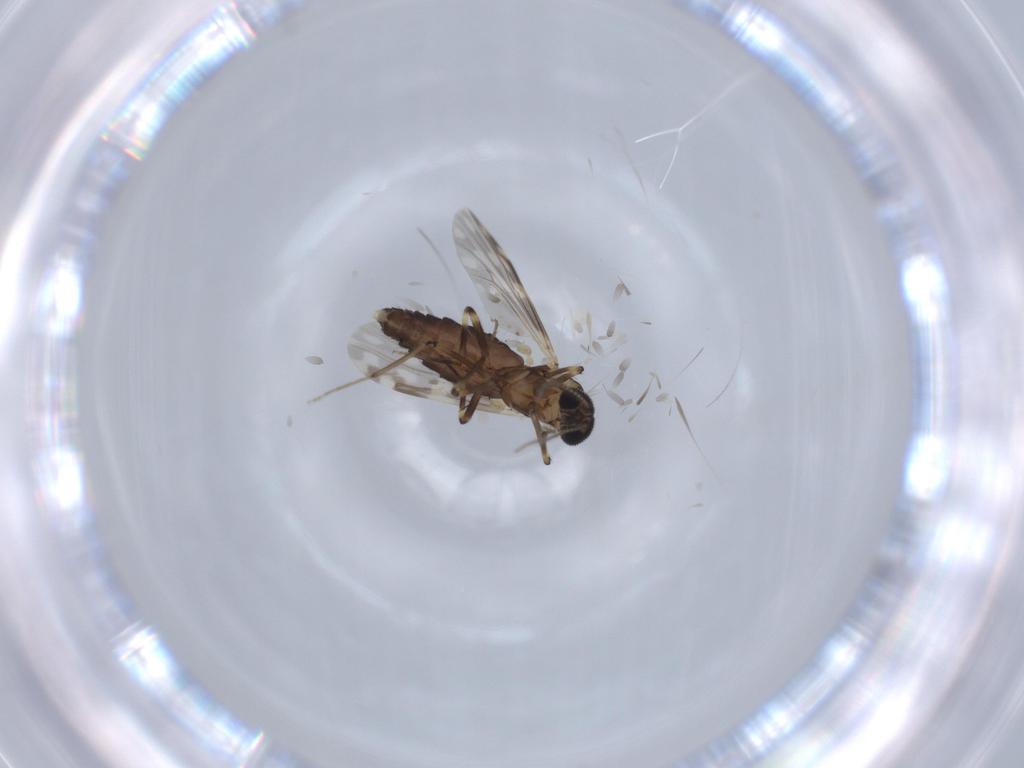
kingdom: Animalia
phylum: Arthropoda
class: Insecta
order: Diptera
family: Ceratopogonidae
